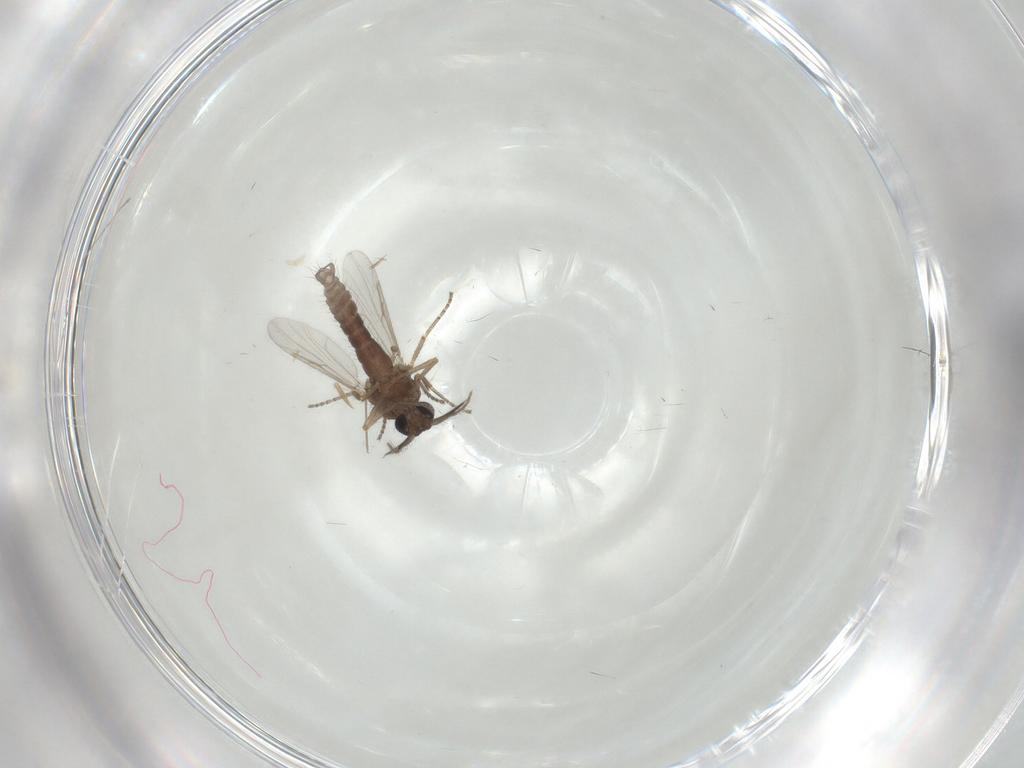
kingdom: Animalia
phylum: Arthropoda
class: Insecta
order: Diptera
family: Ceratopogonidae
